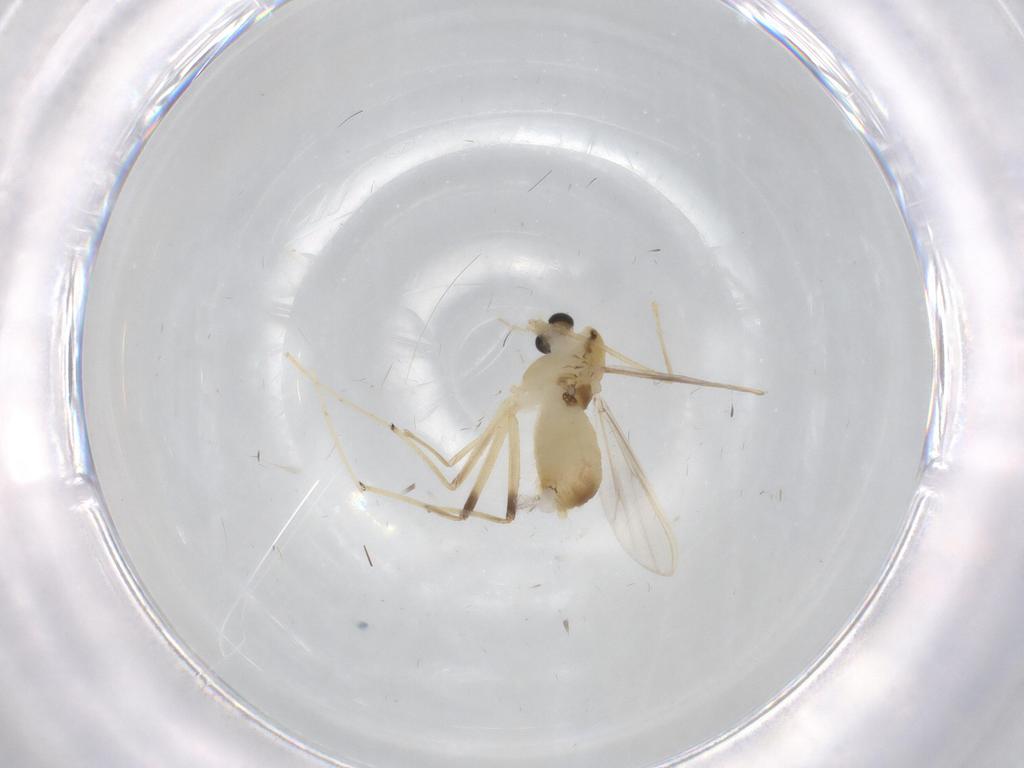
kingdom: Animalia
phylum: Arthropoda
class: Insecta
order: Diptera
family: Chironomidae
